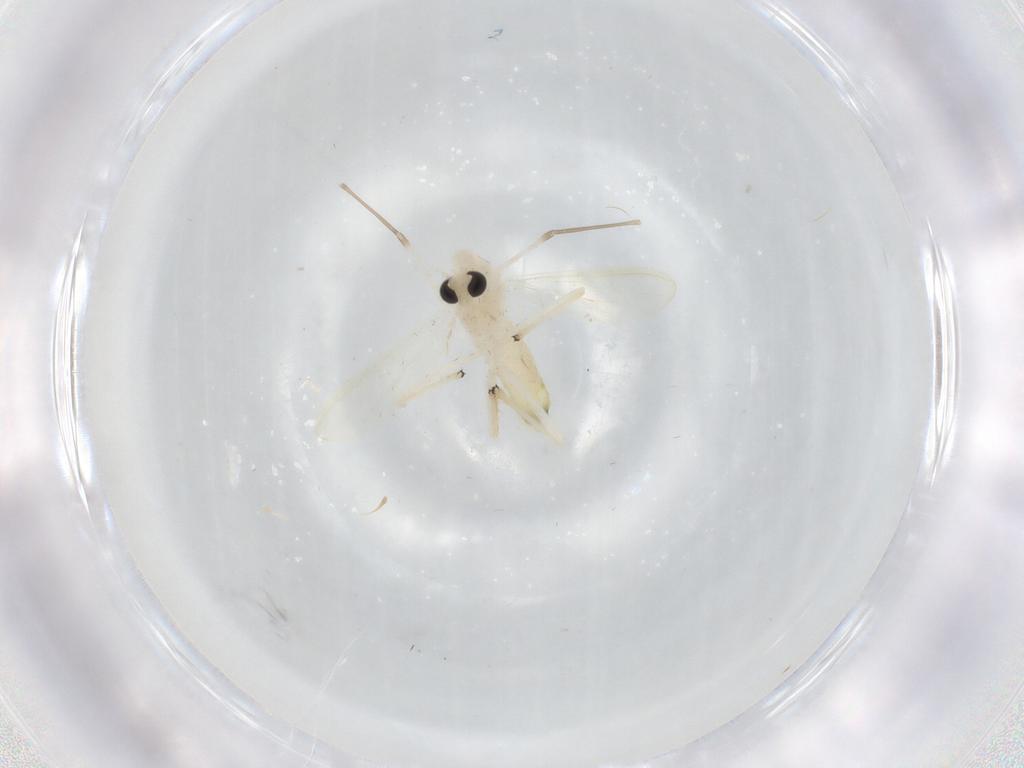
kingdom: Animalia
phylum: Arthropoda
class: Insecta
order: Diptera
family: Chironomidae
